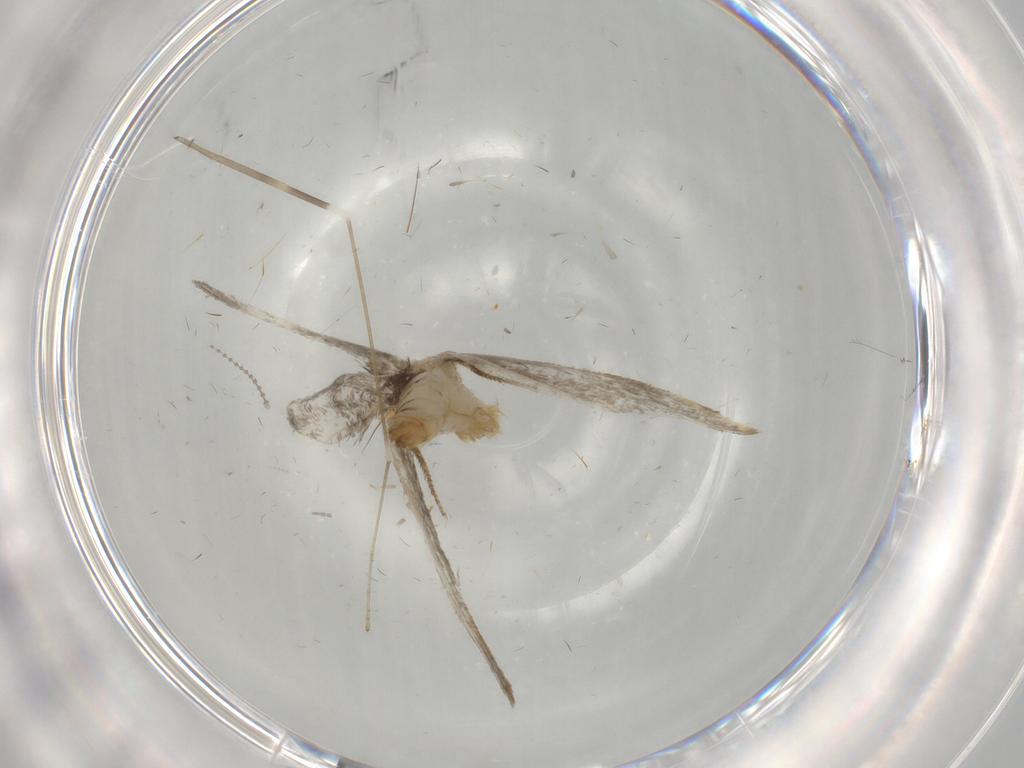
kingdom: Animalia
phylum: Arthropoda
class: Insecta
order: Lepidoptera
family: Psychidae
